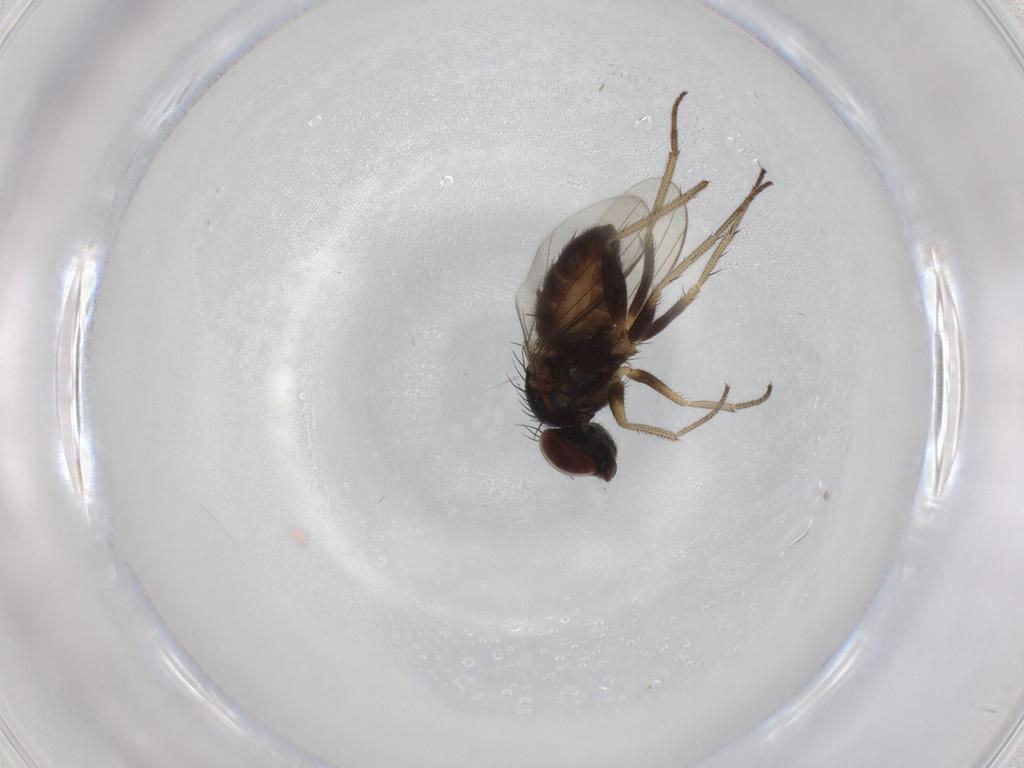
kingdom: Animalia
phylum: Arthropoda
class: Insecta
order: Diptera
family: Dolichopodidae
